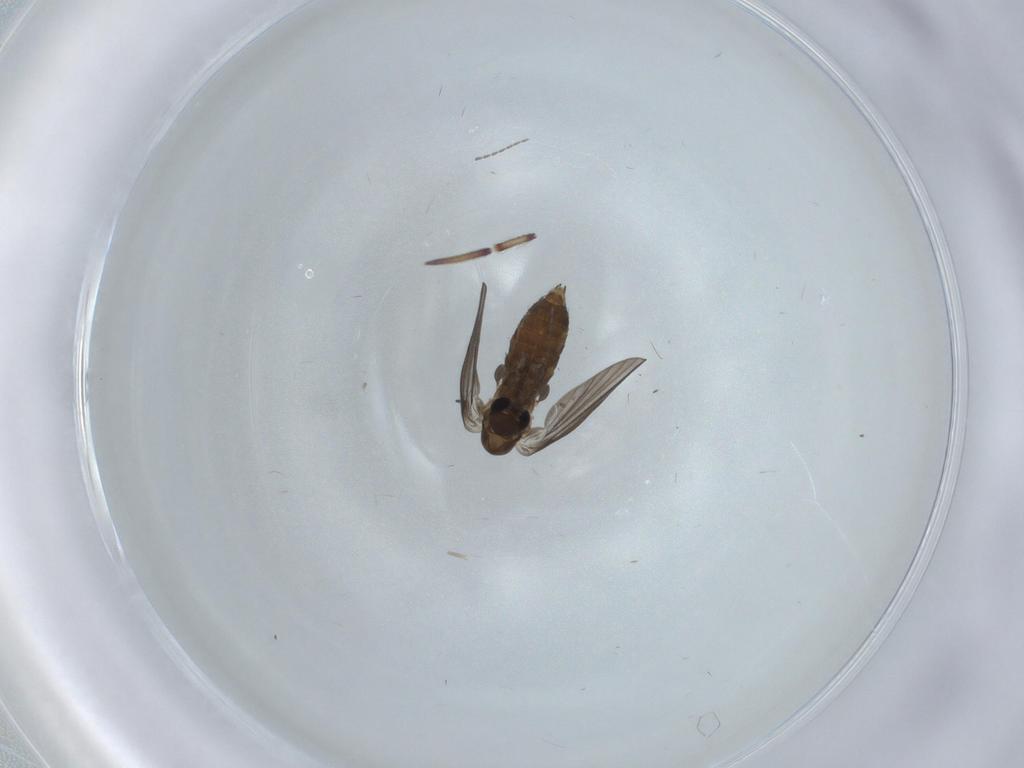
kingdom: Animalia
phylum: Arthropoda
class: Insecta
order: Diptera
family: Psychodidae
